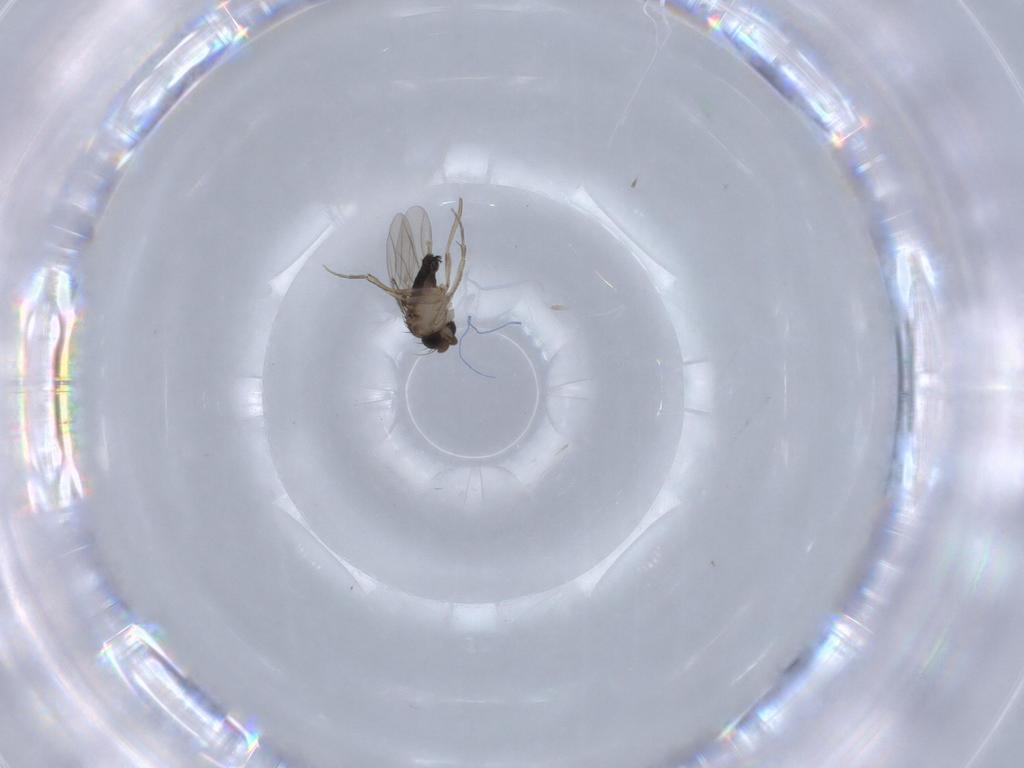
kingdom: Animalia
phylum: Arthropoda
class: Insecta
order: Diptera
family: Phoridae
